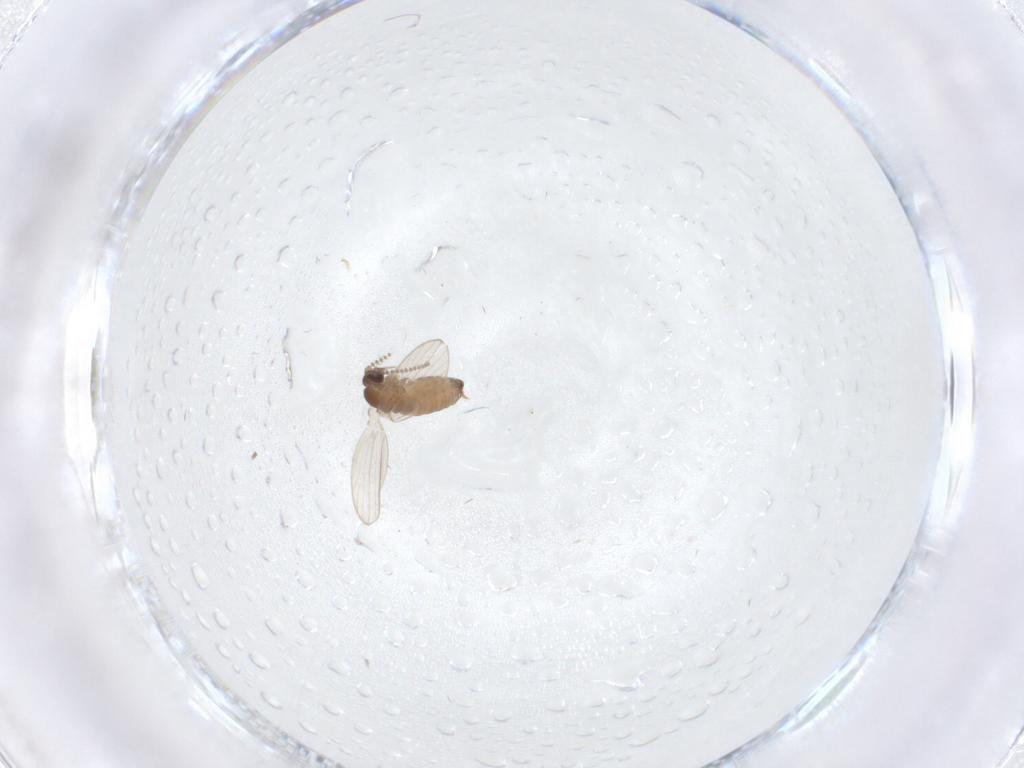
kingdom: Animalia
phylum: Arthropoda
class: Insecta
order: Diptera
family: Psychodidae
